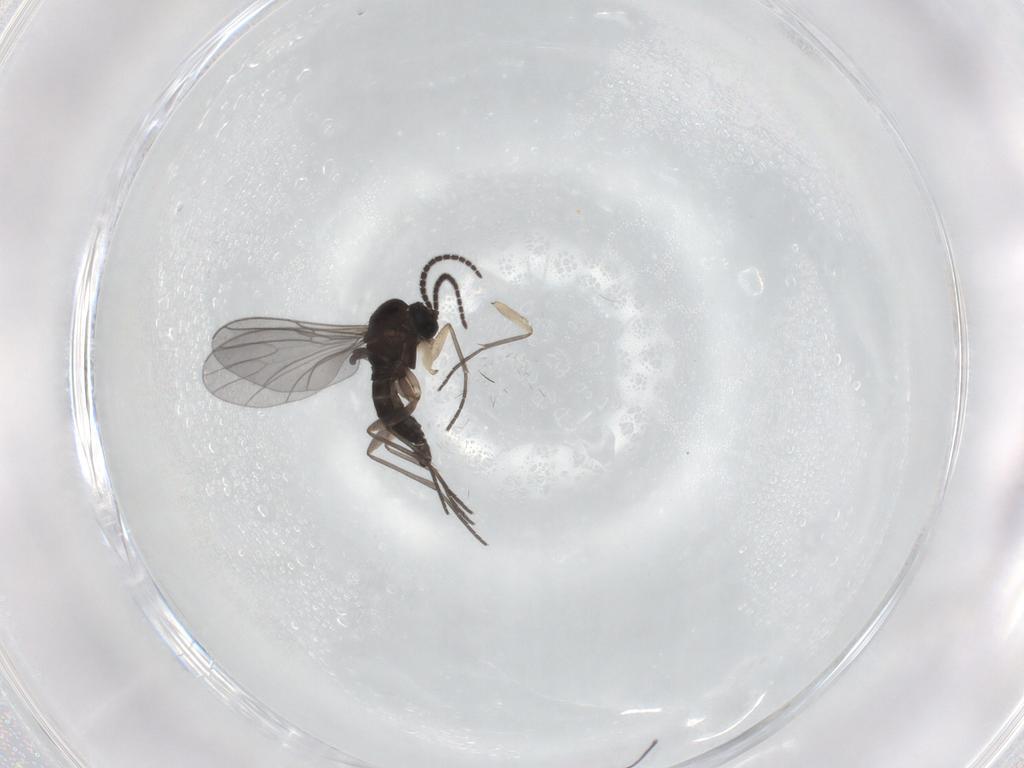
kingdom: Animalia
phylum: Arthropoda
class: Insecta
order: Diptera
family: Sciaridae
